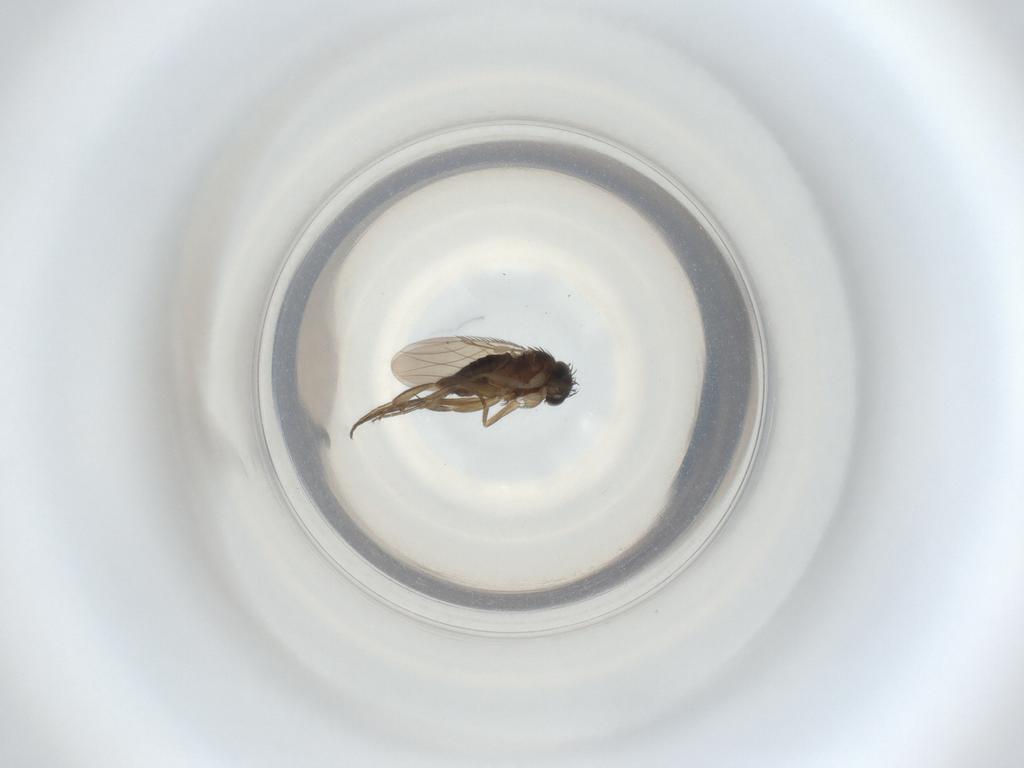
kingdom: Animalia
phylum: Arthropoda
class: Insecta
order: Diptera
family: Phoridae
